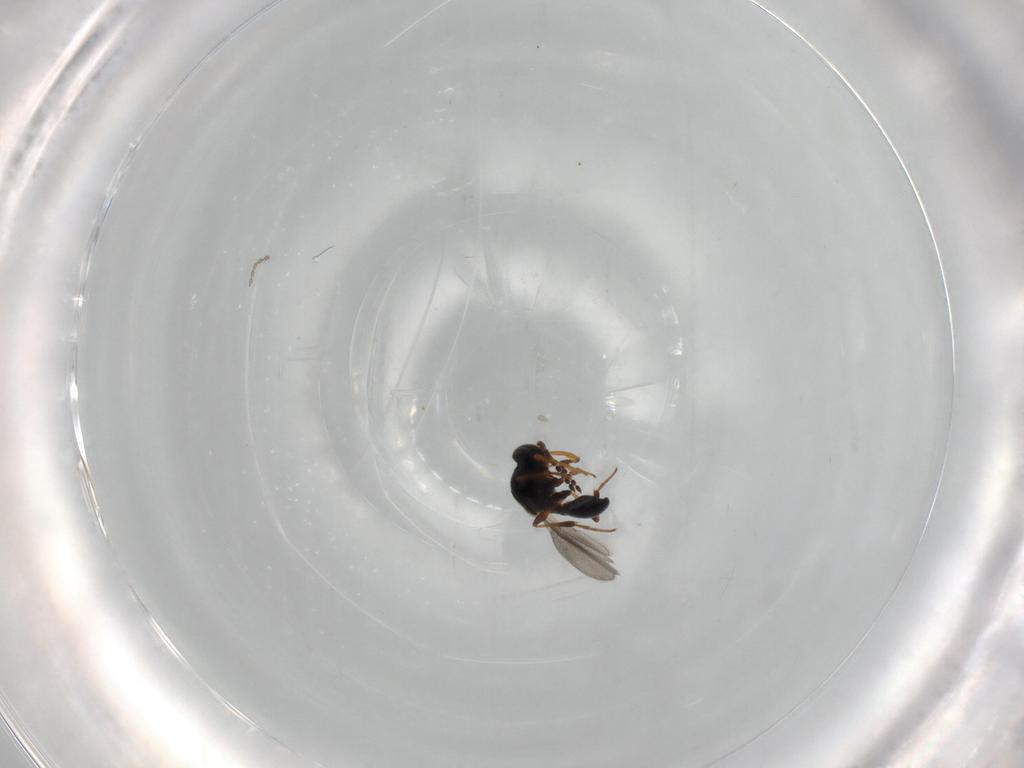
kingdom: Animalia
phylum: Arthropoda
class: Insecta
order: Hymenoptera
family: Platygastridae
